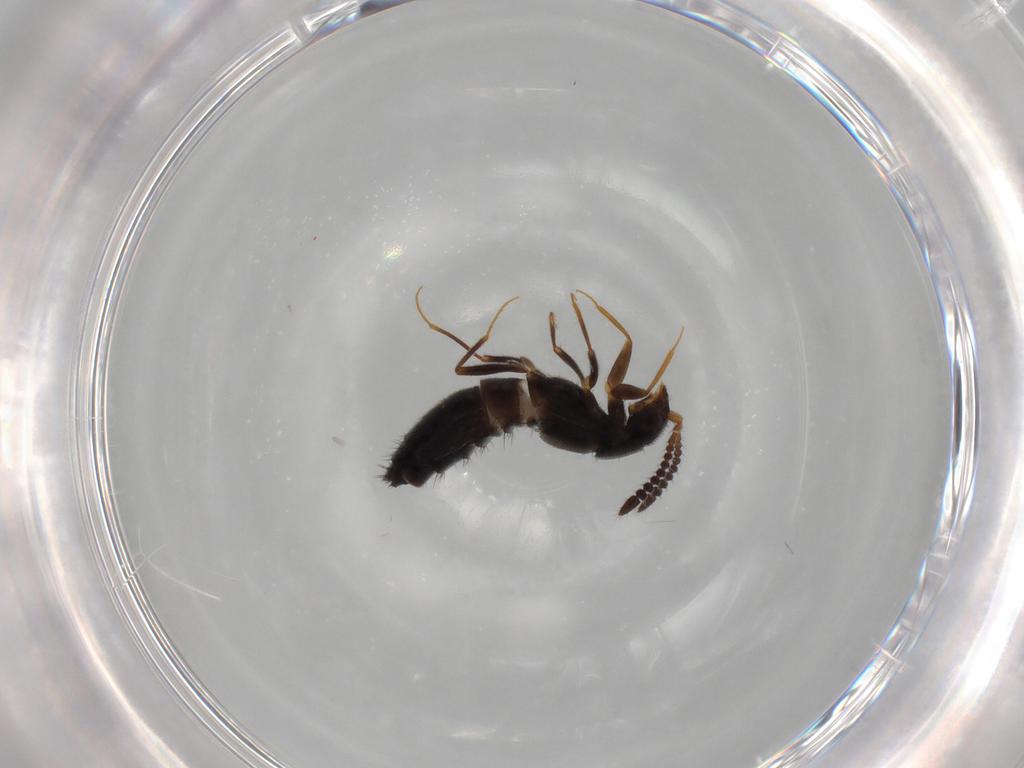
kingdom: Animalia
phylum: Arthropoda
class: Insecta
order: Coleoptera
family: Staphylinidae
